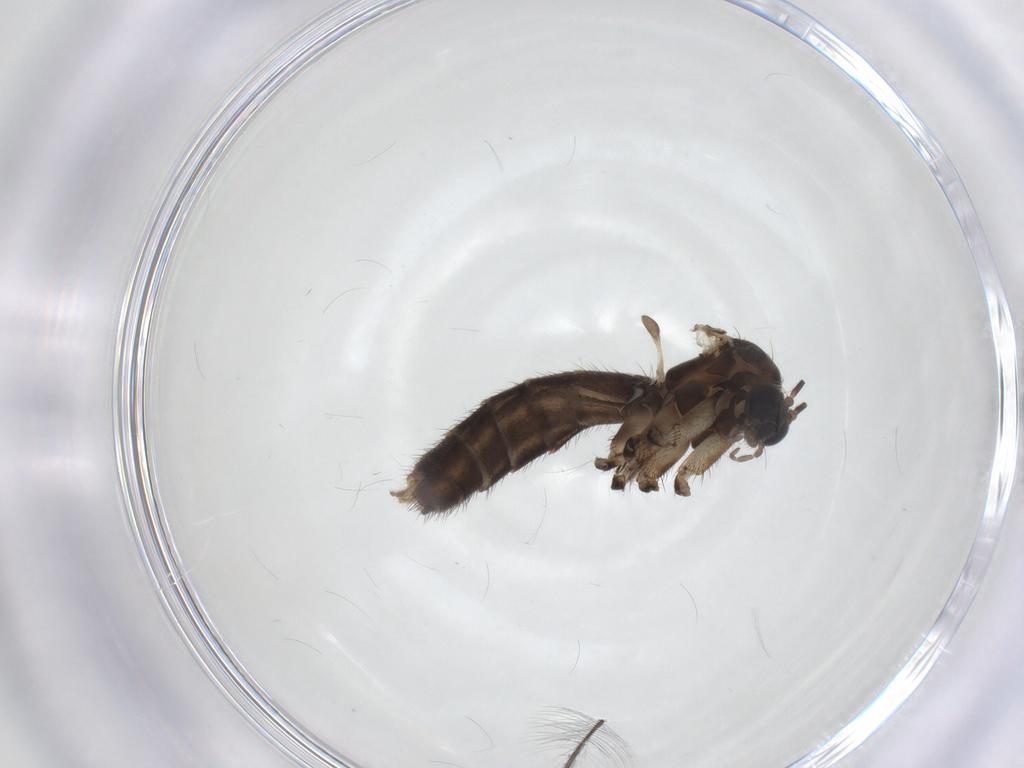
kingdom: Animalia
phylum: Arthropoda
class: Insecta
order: Diptera
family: Mycetophilidae
